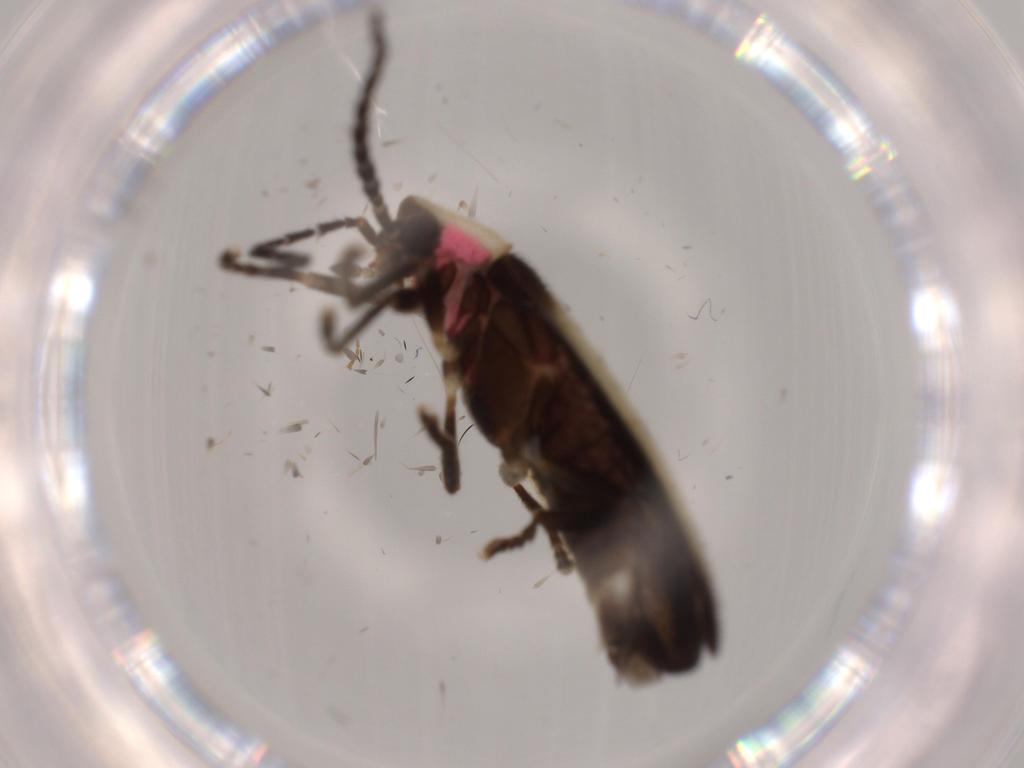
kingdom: Animalia
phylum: Arthropoda
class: Insecta
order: Coleoptera
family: Lampyridae
